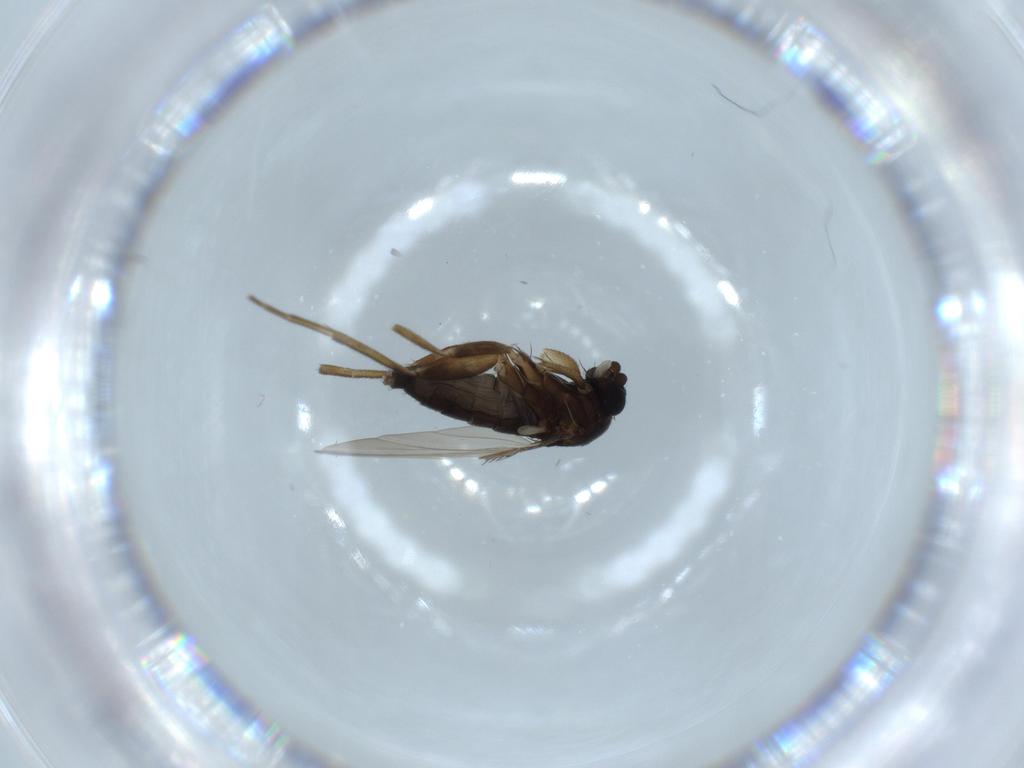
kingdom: Animalia
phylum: Arthropoda
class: Insecta
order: Diptera
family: Phoridae
